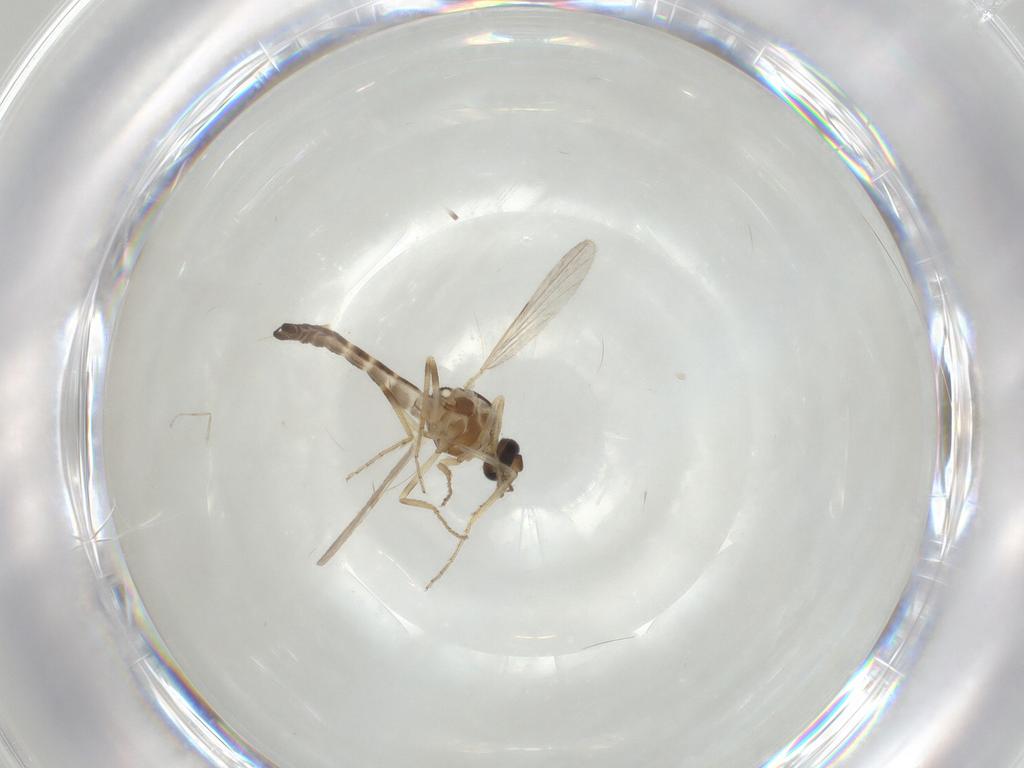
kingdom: Animalia
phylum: Arthropoda
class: Insecta
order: Diptera
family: Ceratopogonidae
